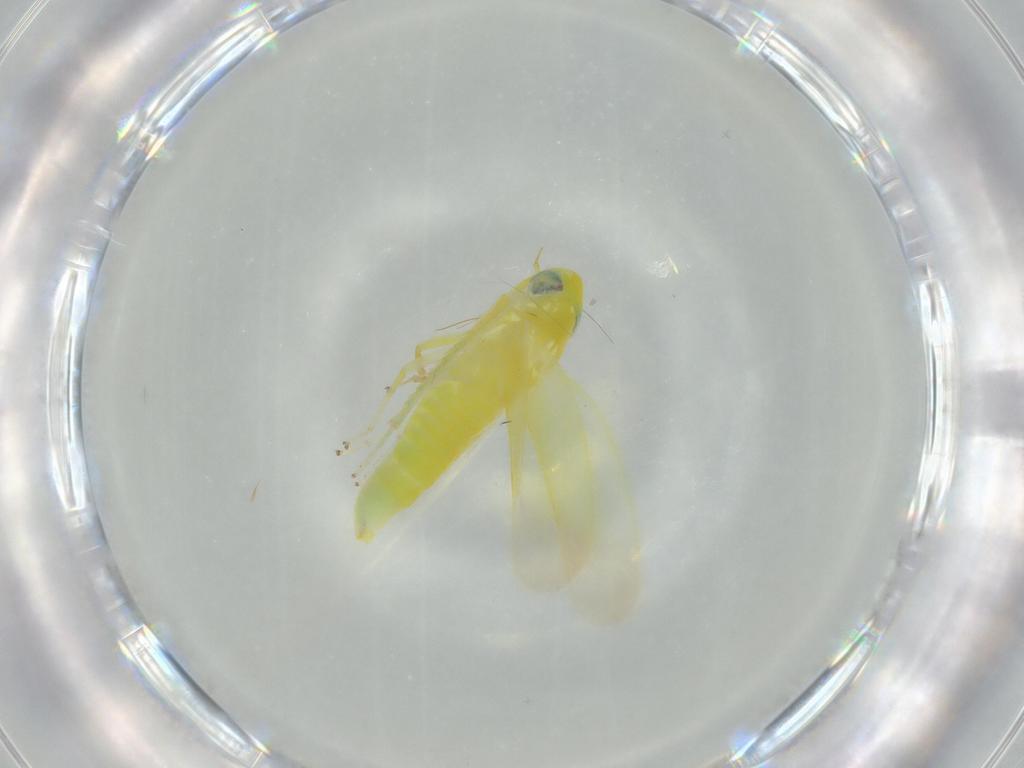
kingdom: Animalia
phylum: Arthropoda
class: Insecta
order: Hemiptera
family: Cicadellidae
